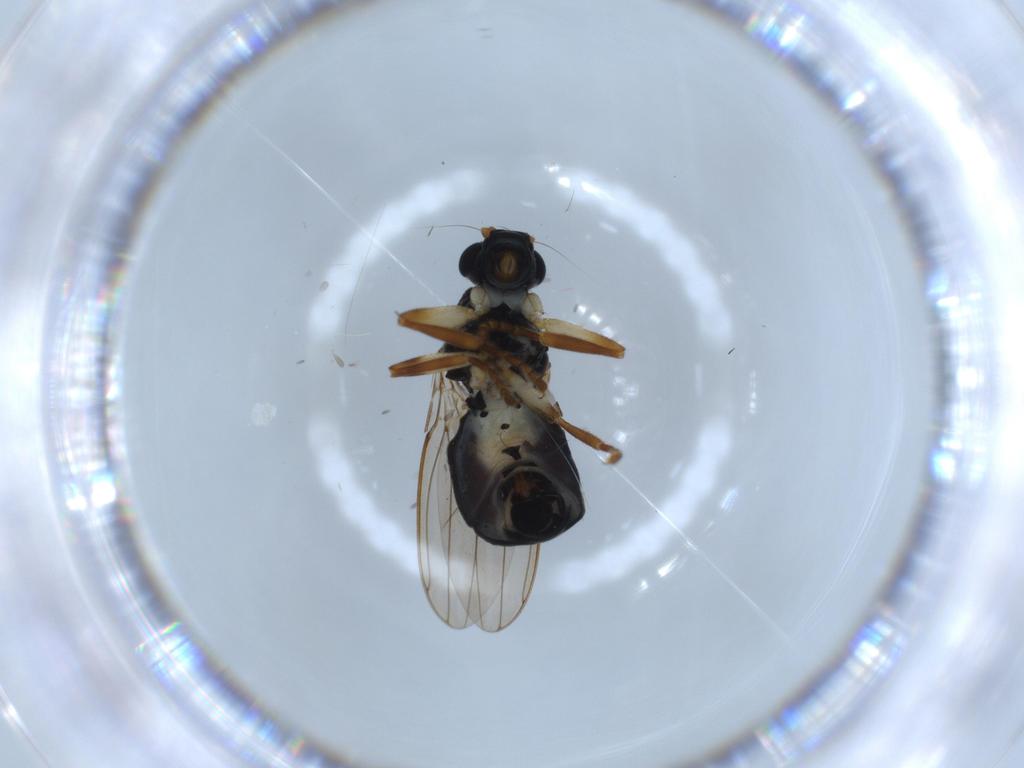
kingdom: Animalia
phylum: Arthropoda
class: Insecta
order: Diptera
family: Sphaeroceridae
